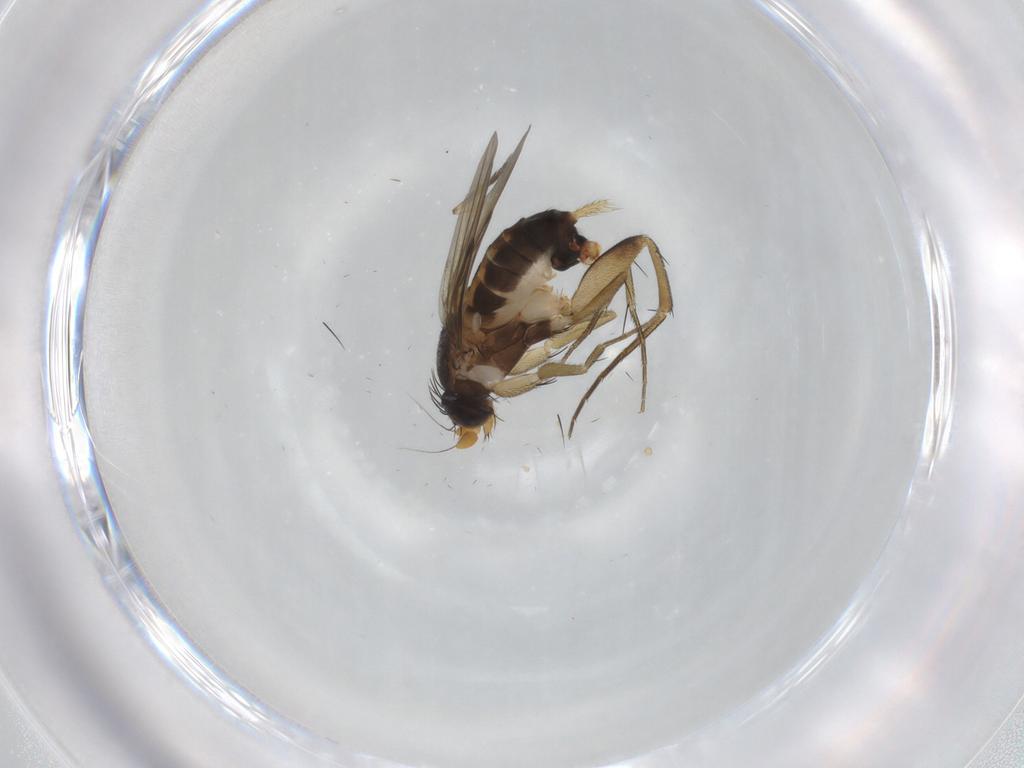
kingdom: Animalia
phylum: Arthropoda
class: Insecta
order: Diptera
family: Phoridae
